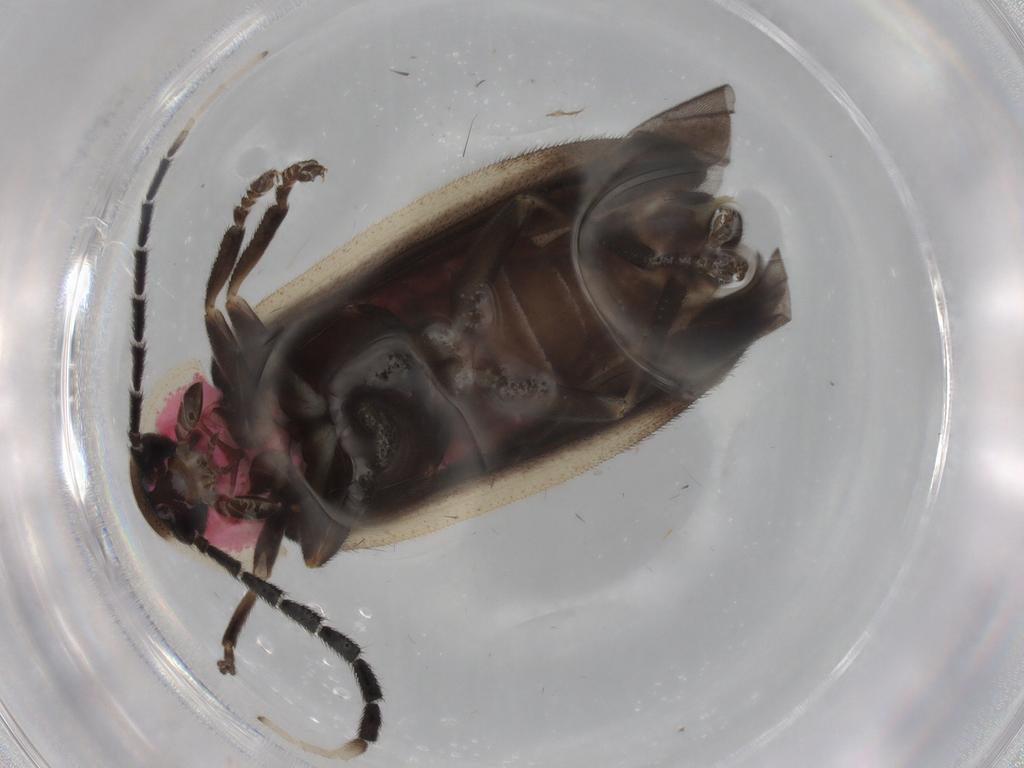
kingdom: Animalia
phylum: Arthropoda
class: Insecta
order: Coleoptera
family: Lampyridae
